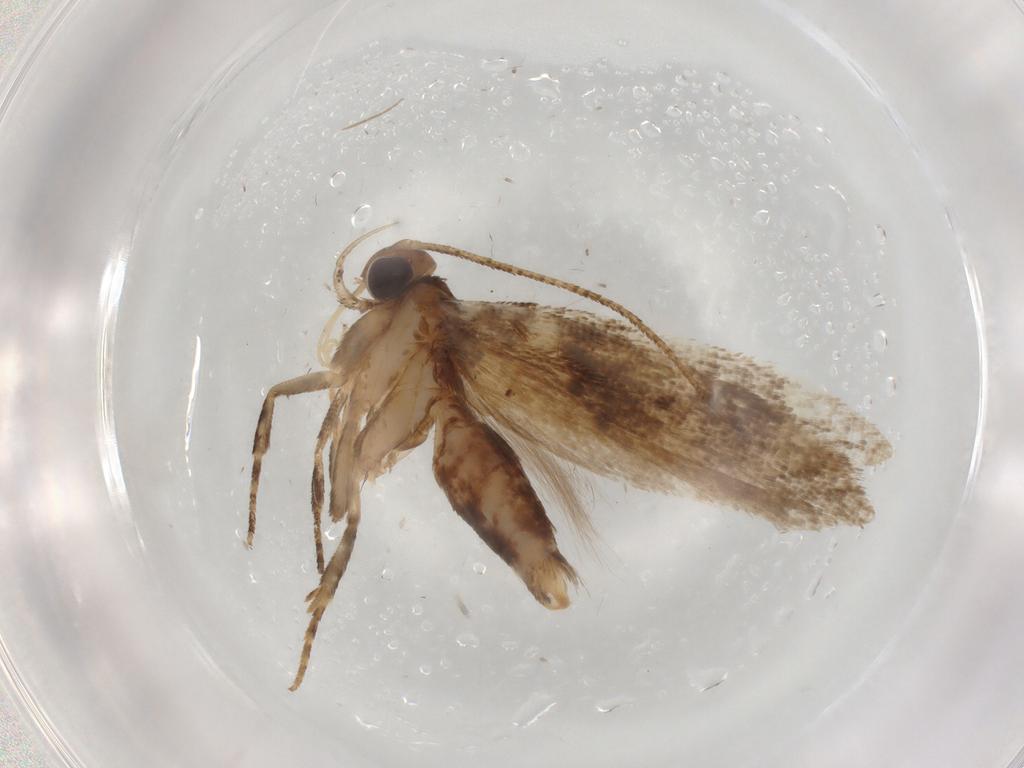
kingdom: Animalia
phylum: Arthropoda
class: Insecta
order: Lepidoptera
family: Gelechiidae
